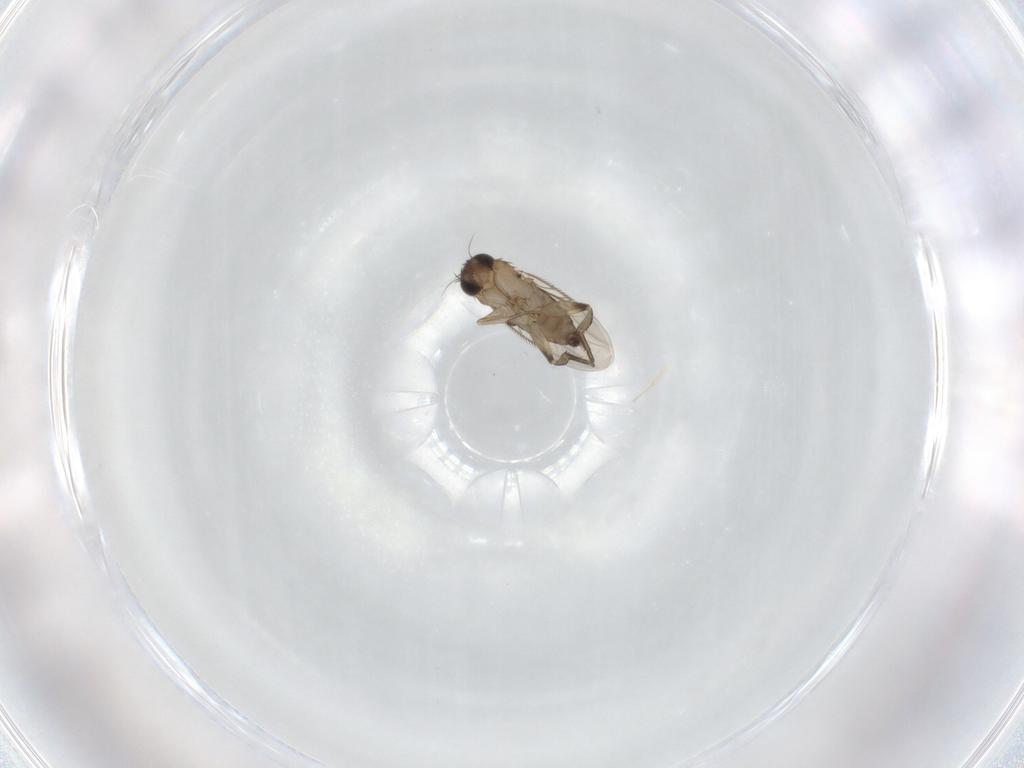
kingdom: Animalia
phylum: Arthropoda
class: Insecta
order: Diptera
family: Phoridae
